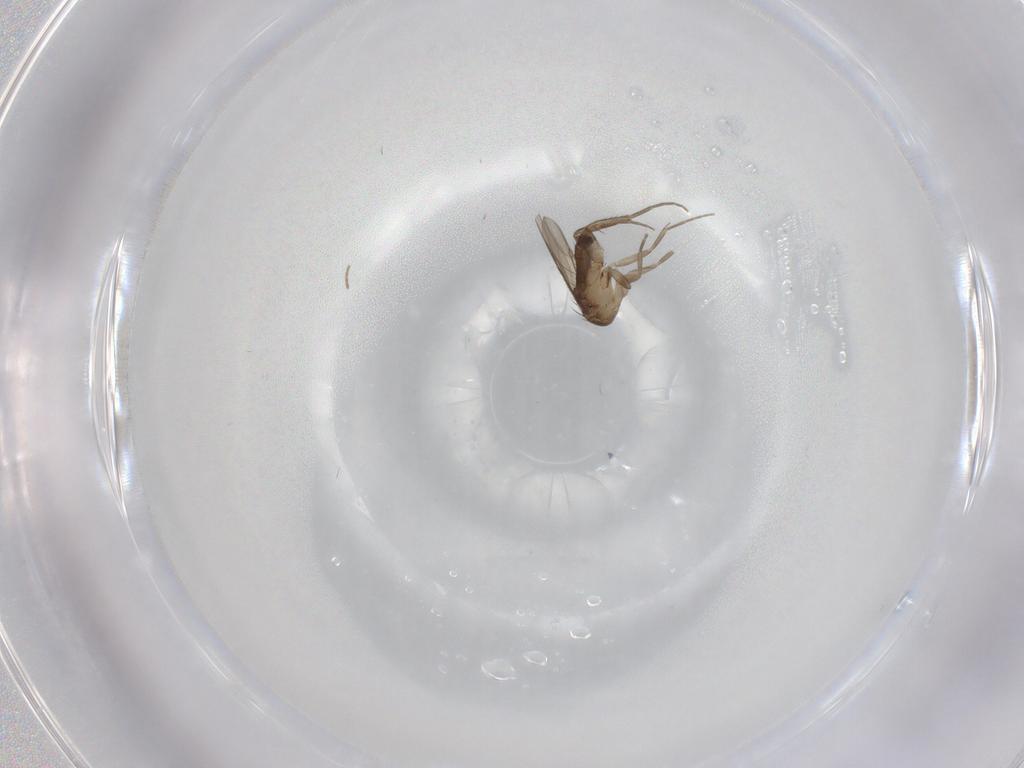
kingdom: Animalia
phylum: Arthropoda
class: Insecta
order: Diptera
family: Phoridae
